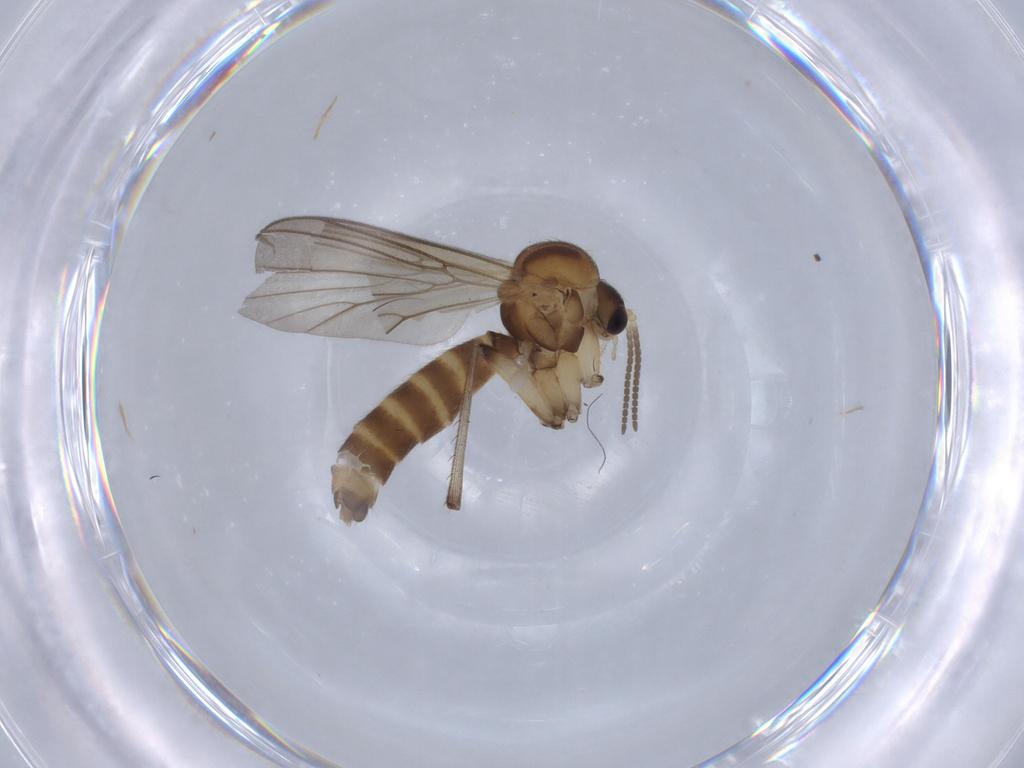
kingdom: Animalia
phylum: Arthropoda
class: Insecta
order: Diptera
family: Mycetophilidae
